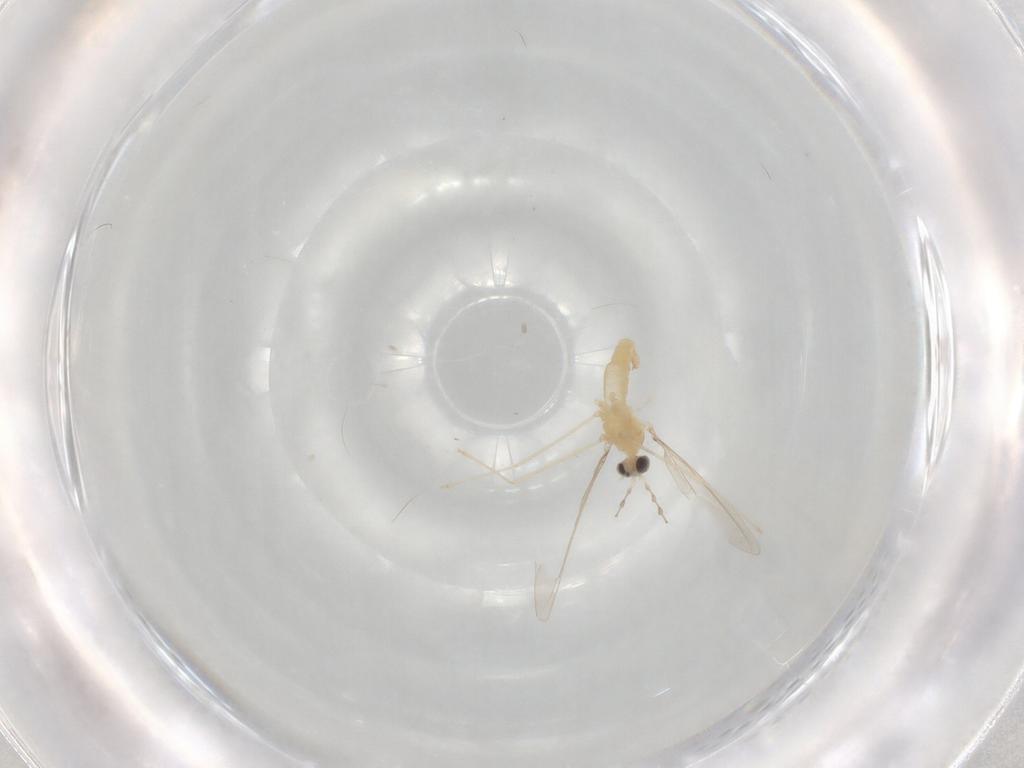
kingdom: Animalia
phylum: Arthropoda
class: Insecta
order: Diptera
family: Cecidomyiidae
